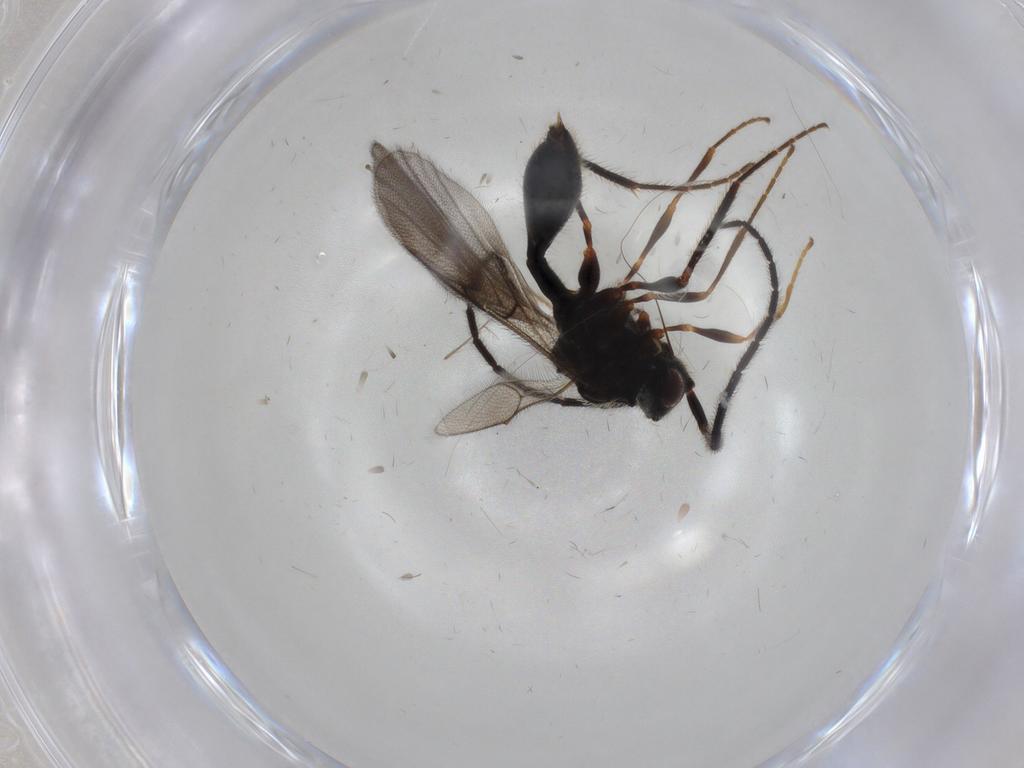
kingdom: Animalia
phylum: Arthropoda
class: Insecta
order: Hymenoptera
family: Diapriidae
